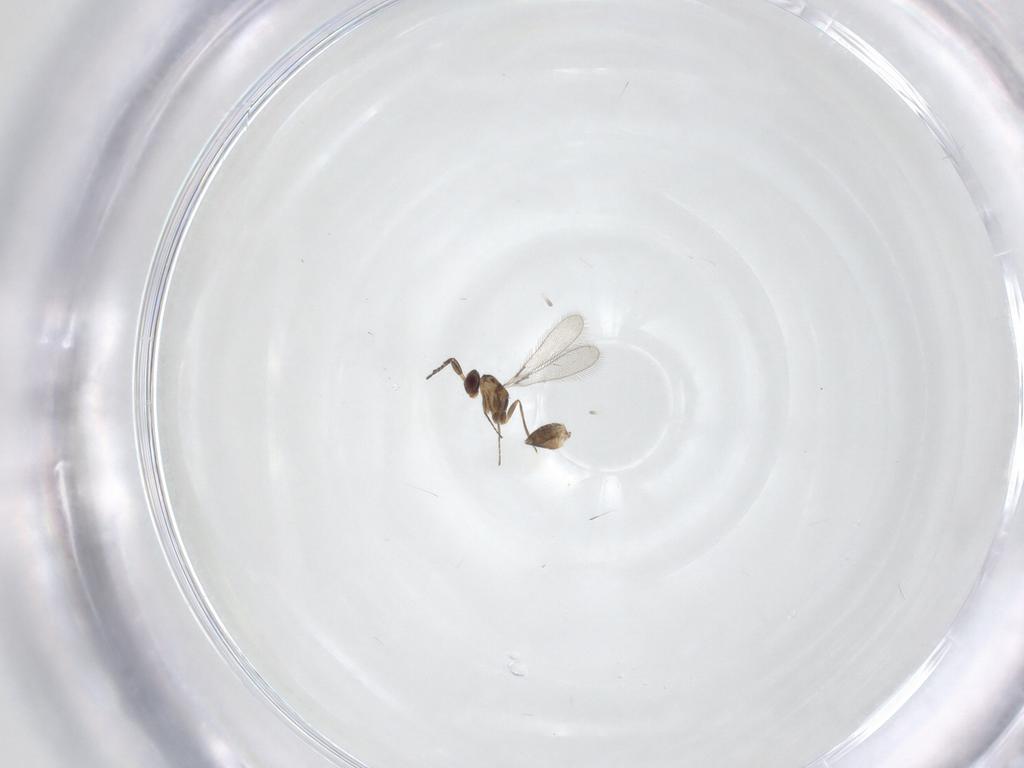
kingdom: Animalia
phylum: Arthropoda
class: Insecta
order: Hymenoptera
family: Mymaridae
